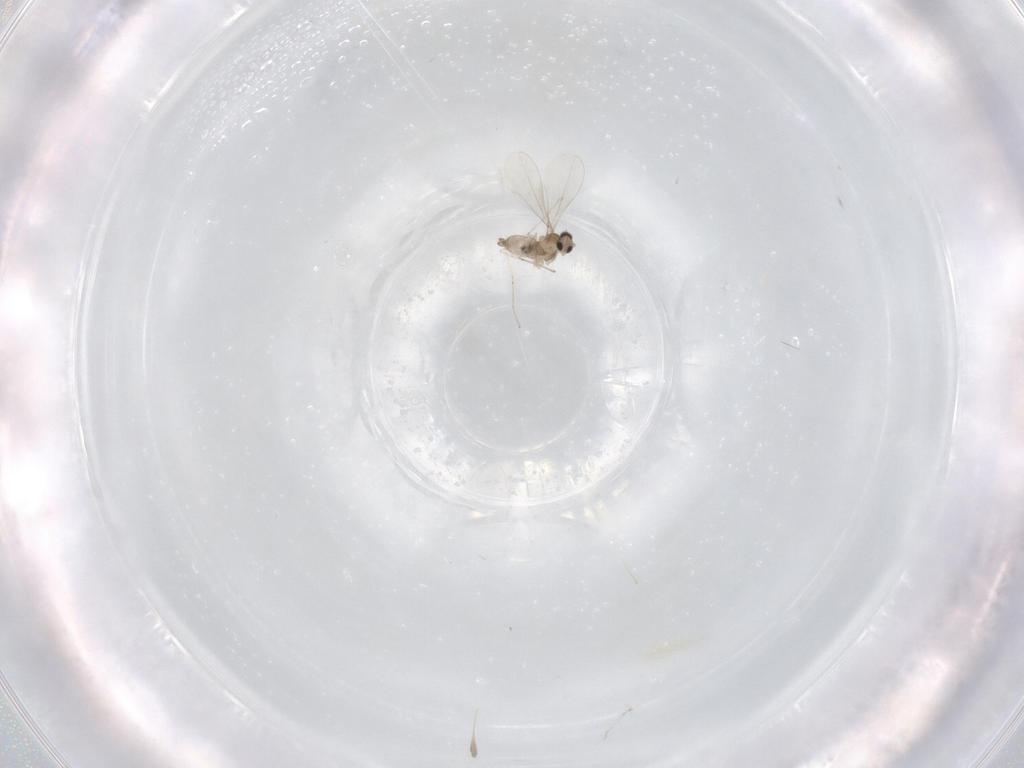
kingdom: Animalia
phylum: Arthropoda
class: Insecta
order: Diptera
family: Cecidomyiidae
